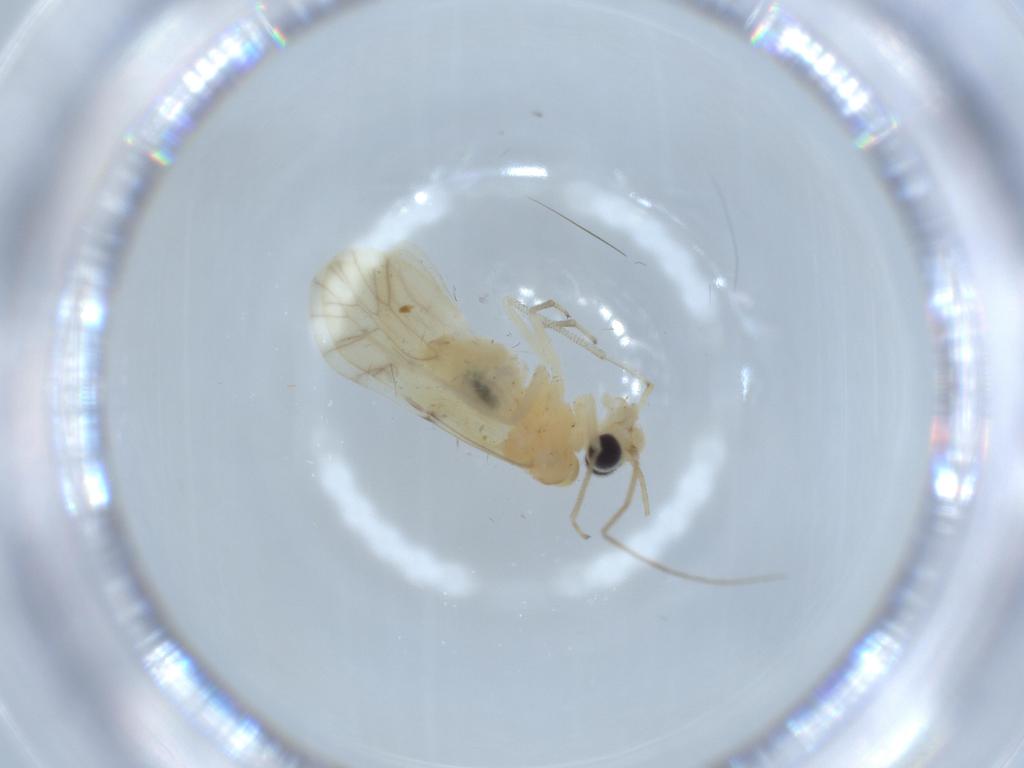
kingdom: Animalia
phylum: Arthropoda
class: Insecta
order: Psocodea
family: Caeciliusidae
